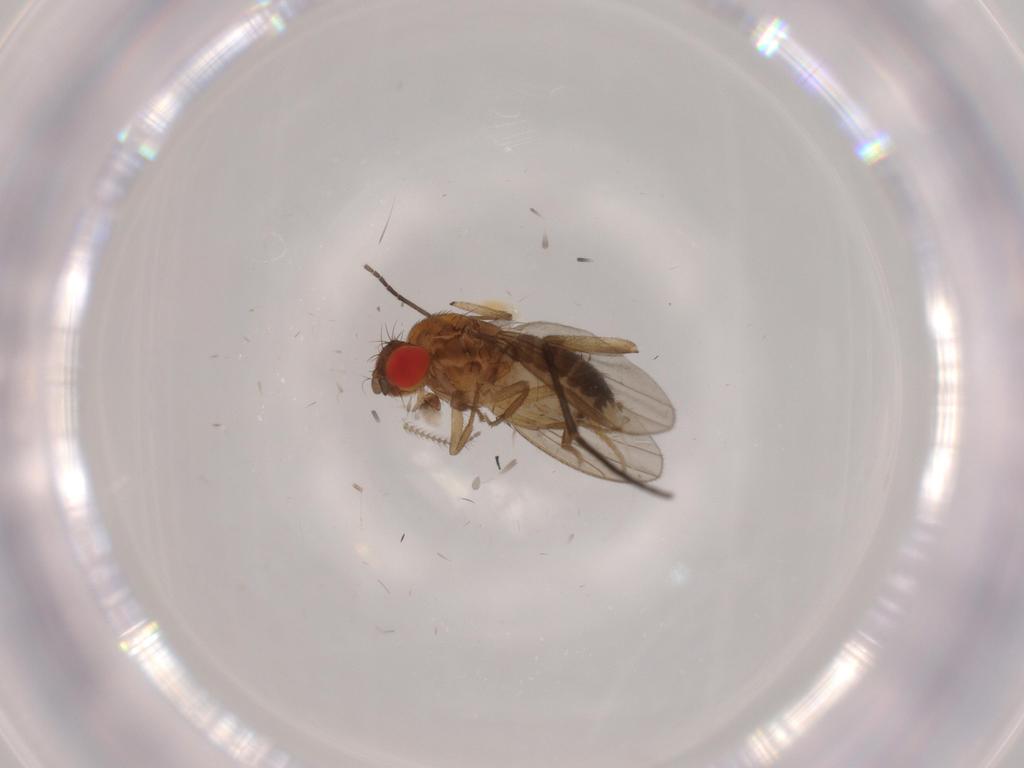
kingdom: Animalia
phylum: Arthropoda
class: Insecta
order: Diptera
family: Drosophilidae
